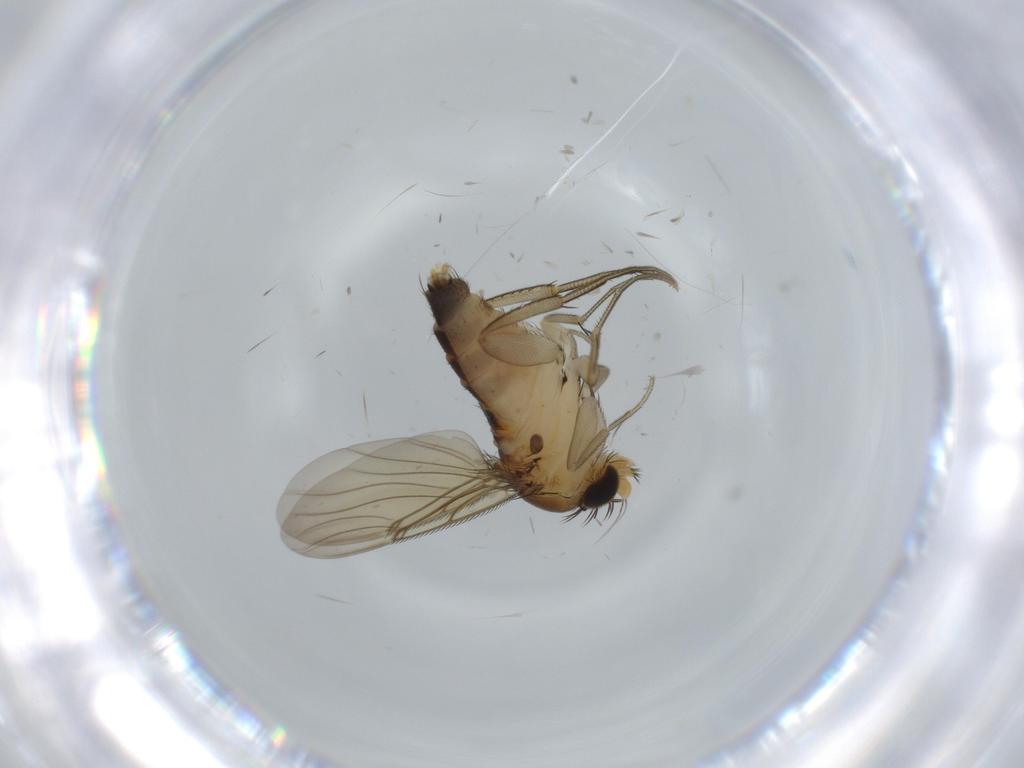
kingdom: Animalia
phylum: Arthropoda
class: Insecta
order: Diptera
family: Phoridae
